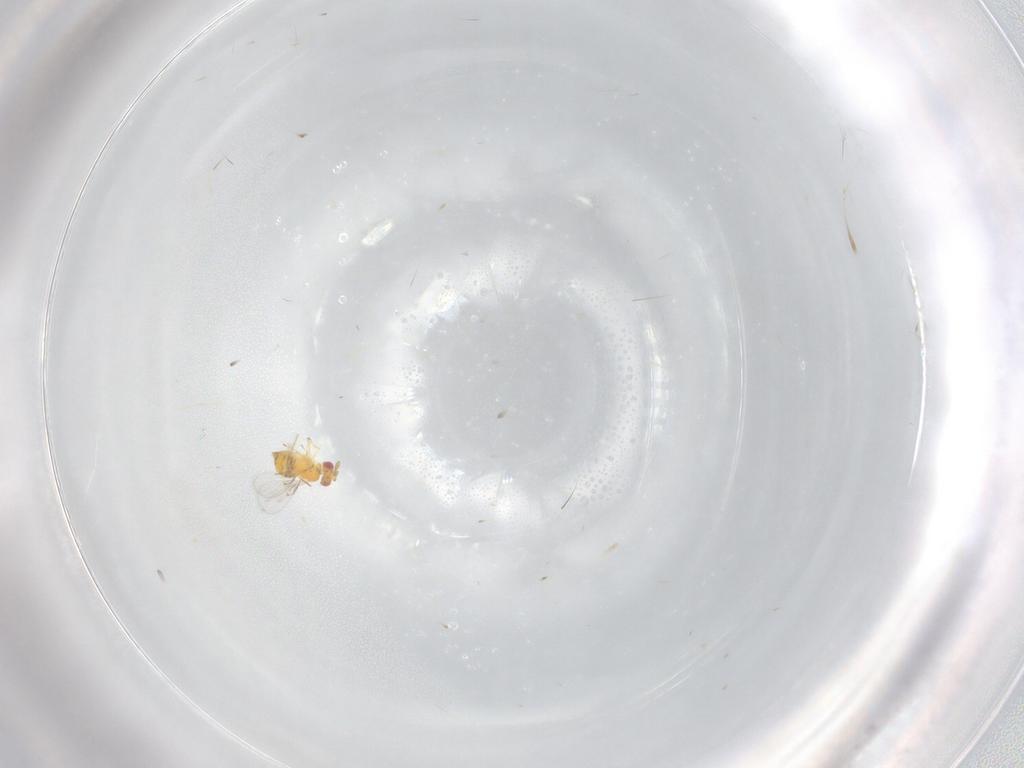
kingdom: Animalia
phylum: Arthropoda
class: Insecta
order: Hymenoptera
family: Trichogrammatidae
